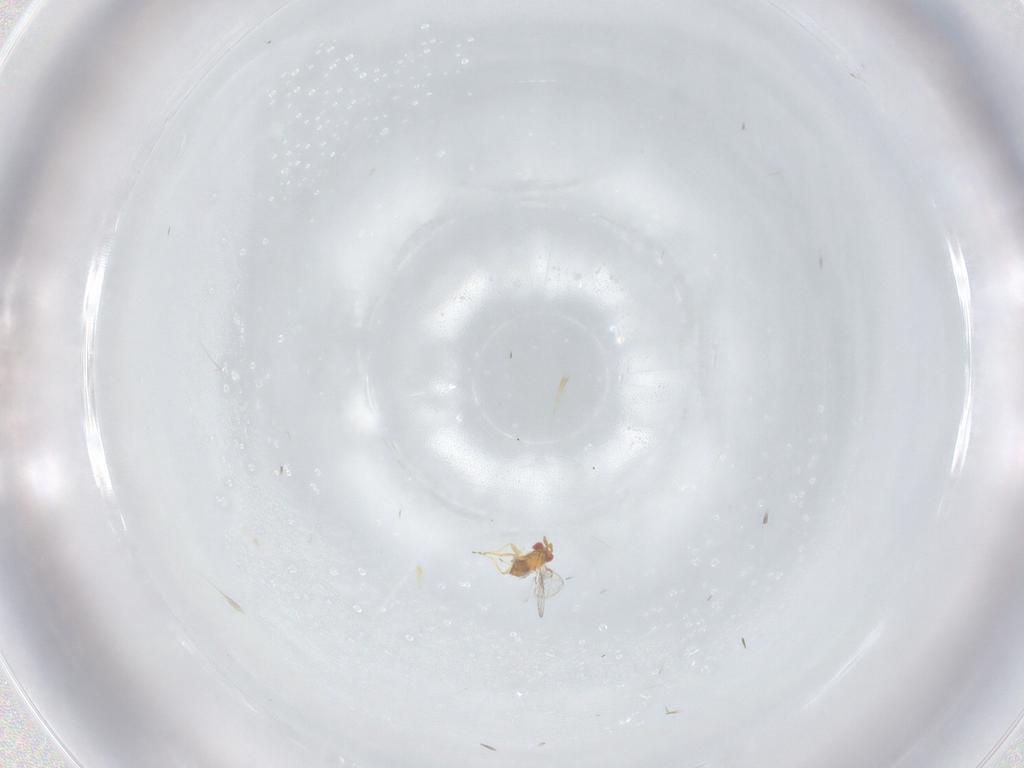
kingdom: Animalia
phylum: Arthropoda
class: Insecta
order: Hymenoptera
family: Trichogrammatidae
